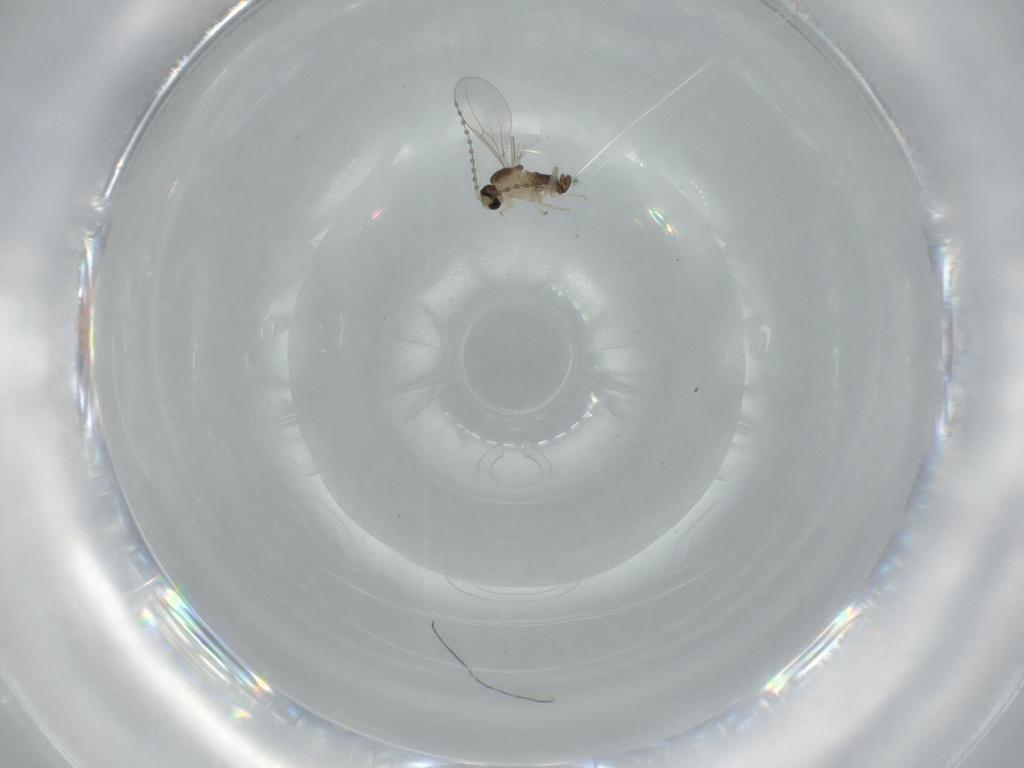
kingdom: Animalia
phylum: Arthropoda
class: Insecta
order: Diptera
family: Cecidomyiidae
